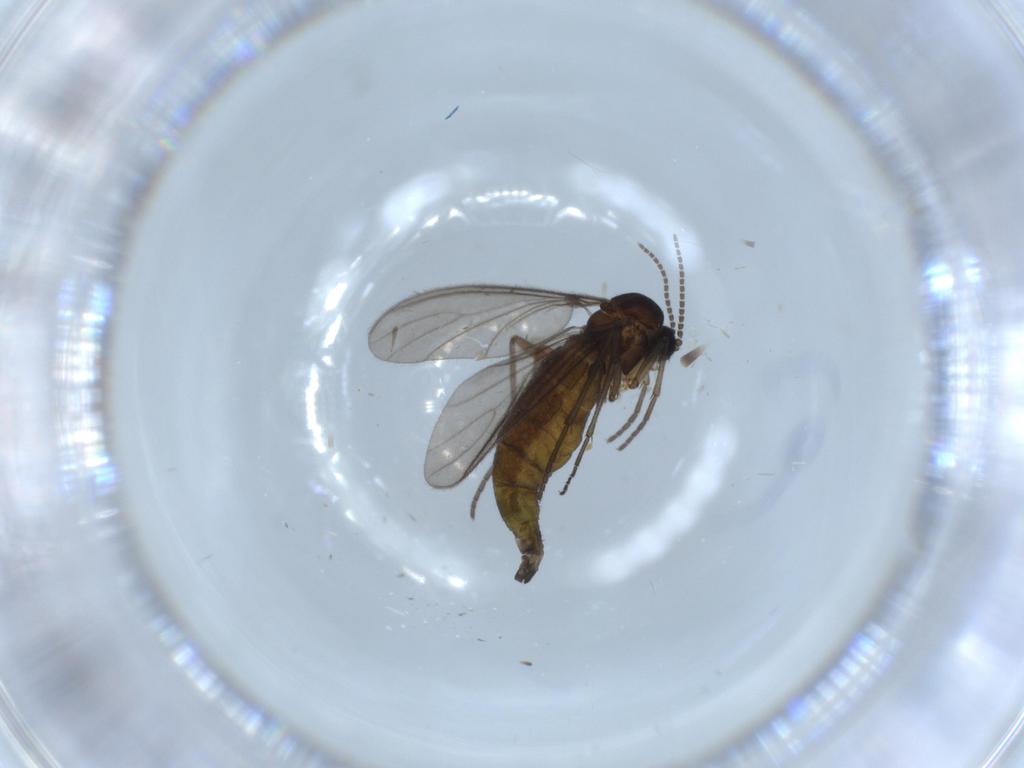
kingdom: Animalia
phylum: Arthropoda
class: Insecta
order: Diptera
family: Sciaridae
